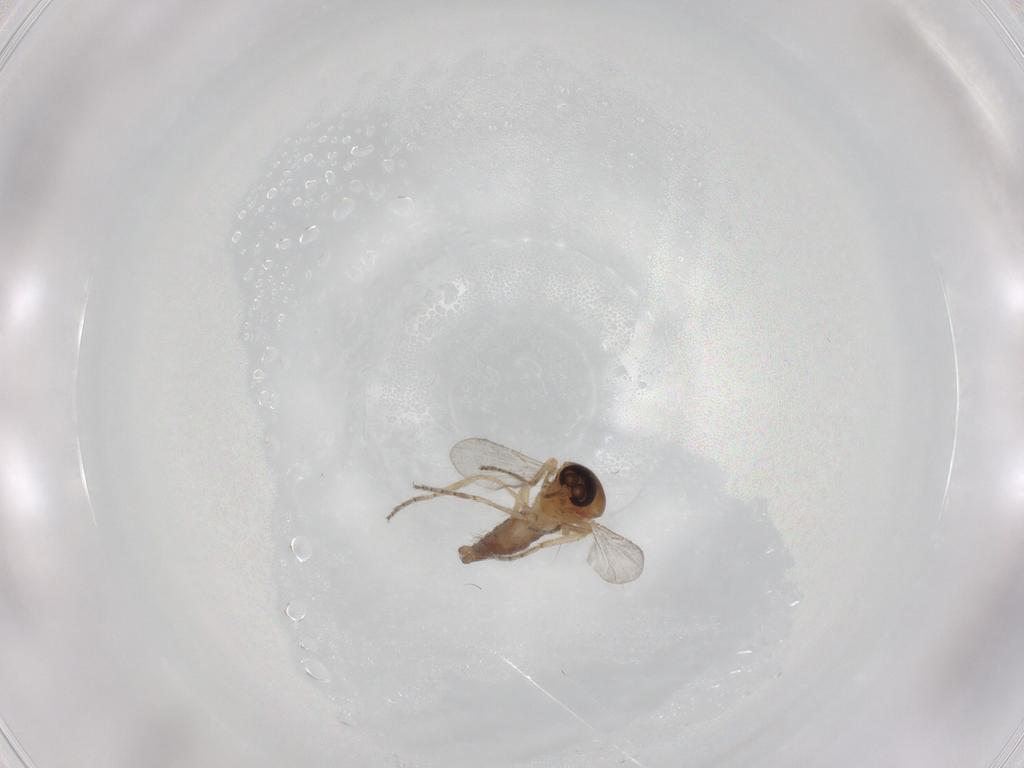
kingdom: Animalia
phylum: Arthropoda
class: Insecta
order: Diptera
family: Ceratopogonidae
